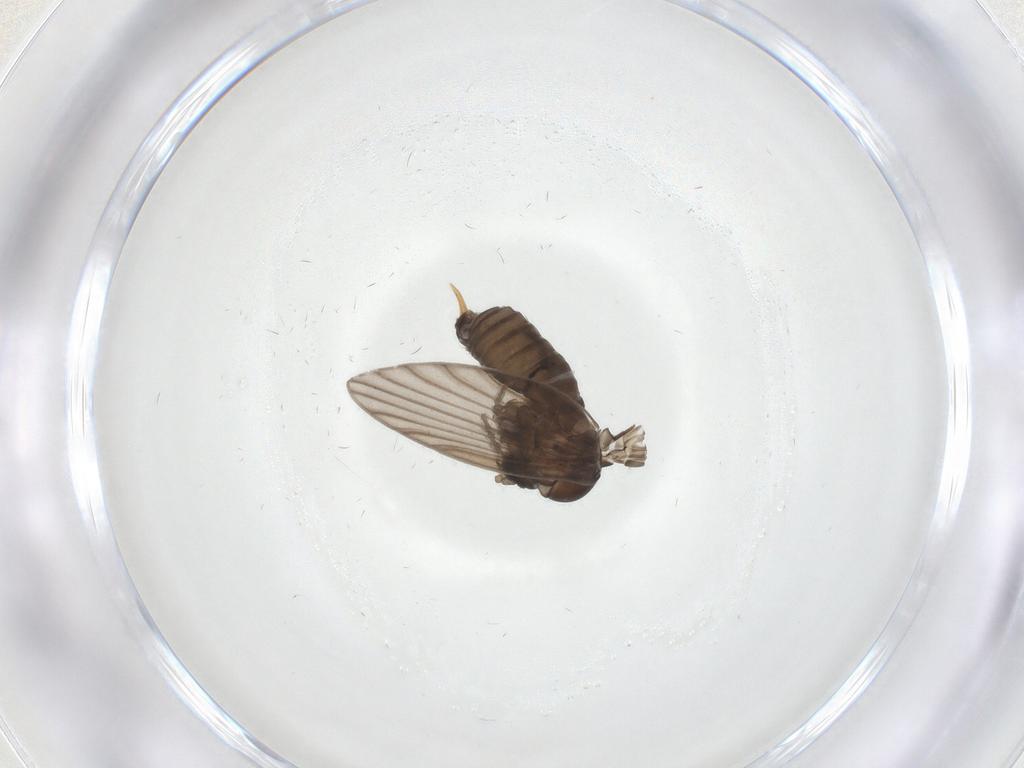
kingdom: Animalia
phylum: Arthropoda
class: Insecta
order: Diptera
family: Psychodidae
